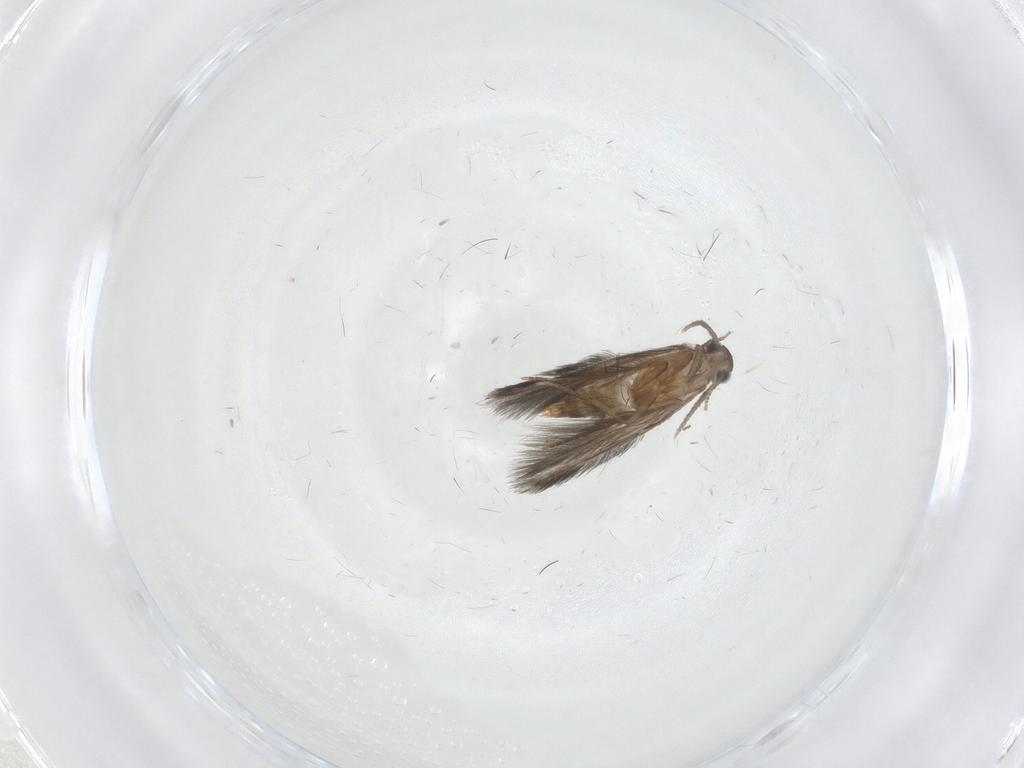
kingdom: Animalia
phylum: Arthropoda
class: Insecta
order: Trichoptera
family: Hydroptilidae
